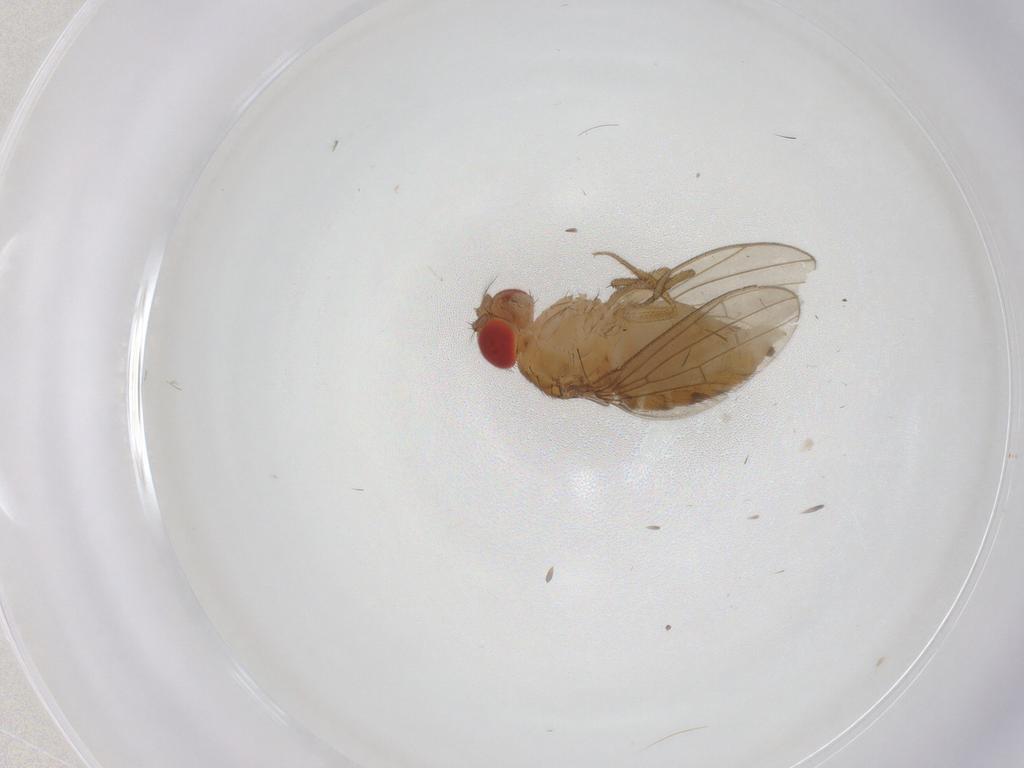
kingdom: Animalia
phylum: Arthropoda
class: Insecta
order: Diptera
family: Drosophilidae
